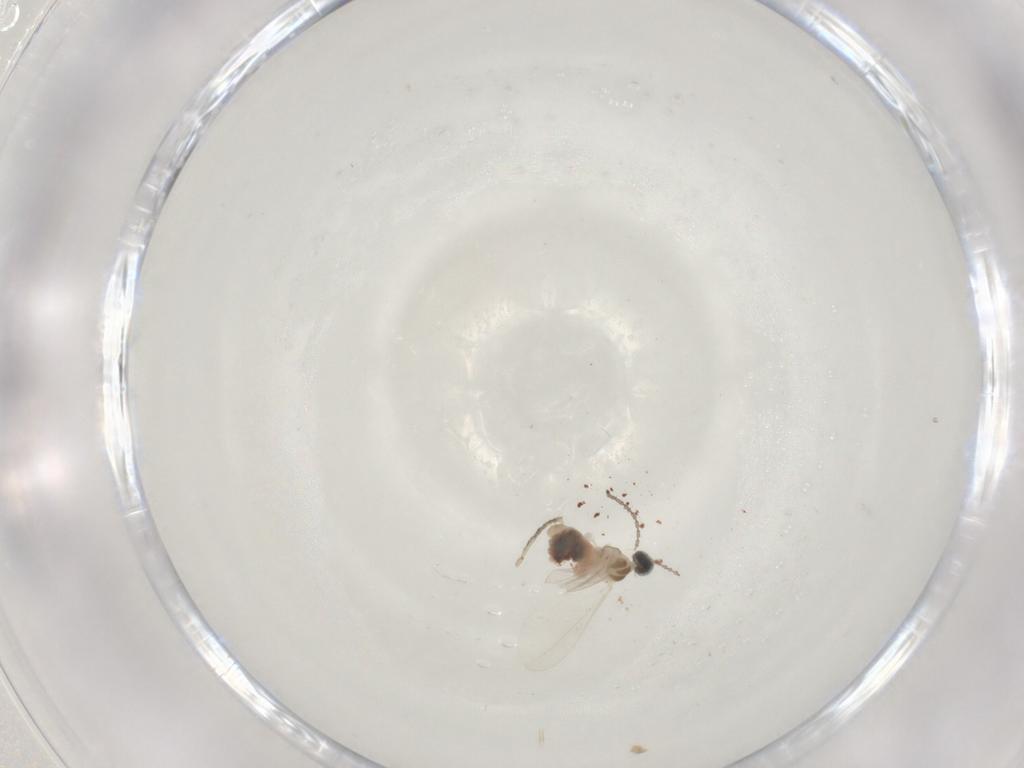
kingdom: Animalia
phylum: Arthropoda
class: Insecta
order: Diptera
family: Cecidomyiidae
